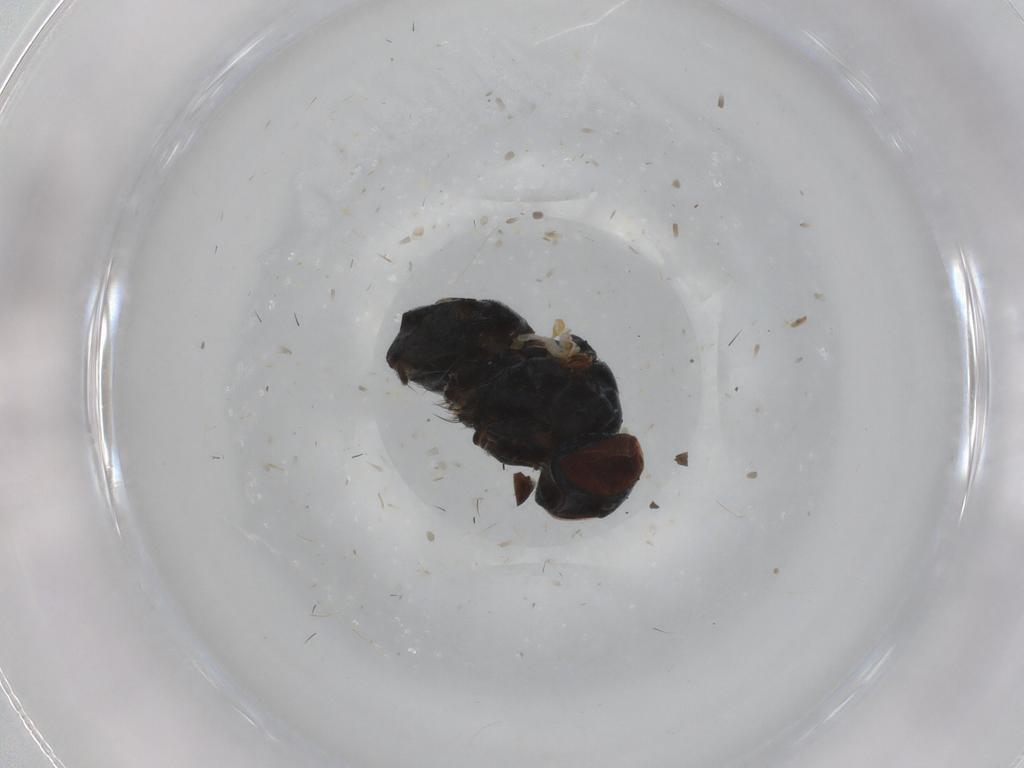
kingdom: Animalia
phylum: Arthropoda
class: Insecta
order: Diptera
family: Muscidae
